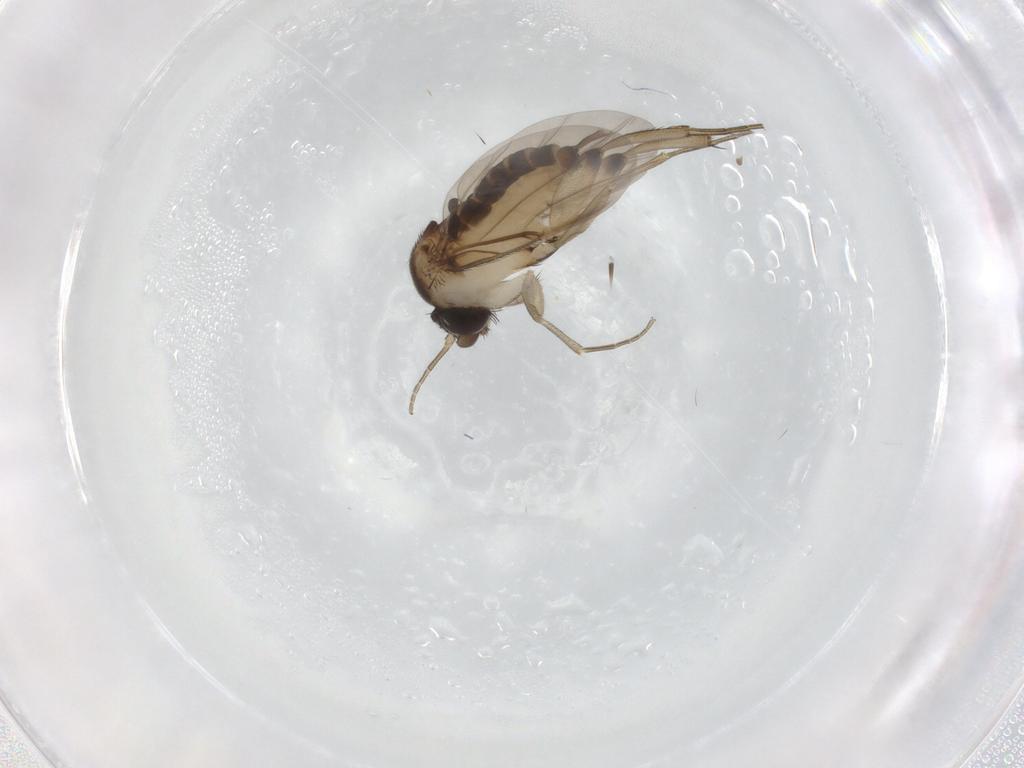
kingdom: Animalia
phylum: Arthropoda
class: Insecta
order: Diptera
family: Phoridae
